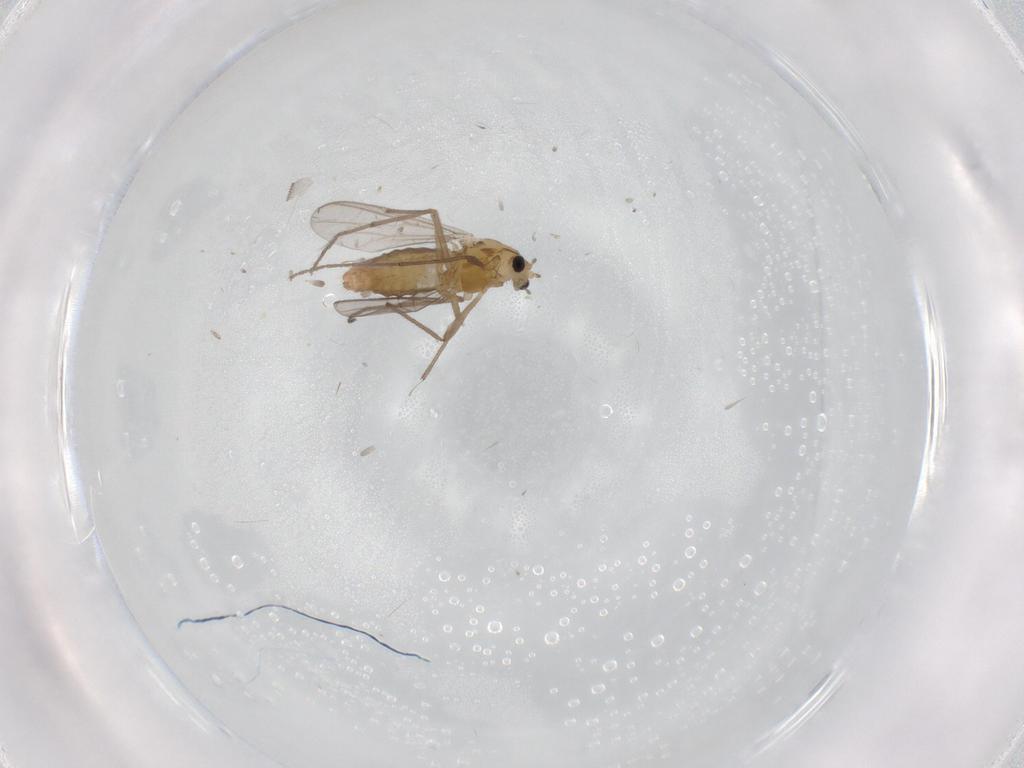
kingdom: Animalia
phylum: Arthropoda
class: Insecta
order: Diptera
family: Chironomidae
